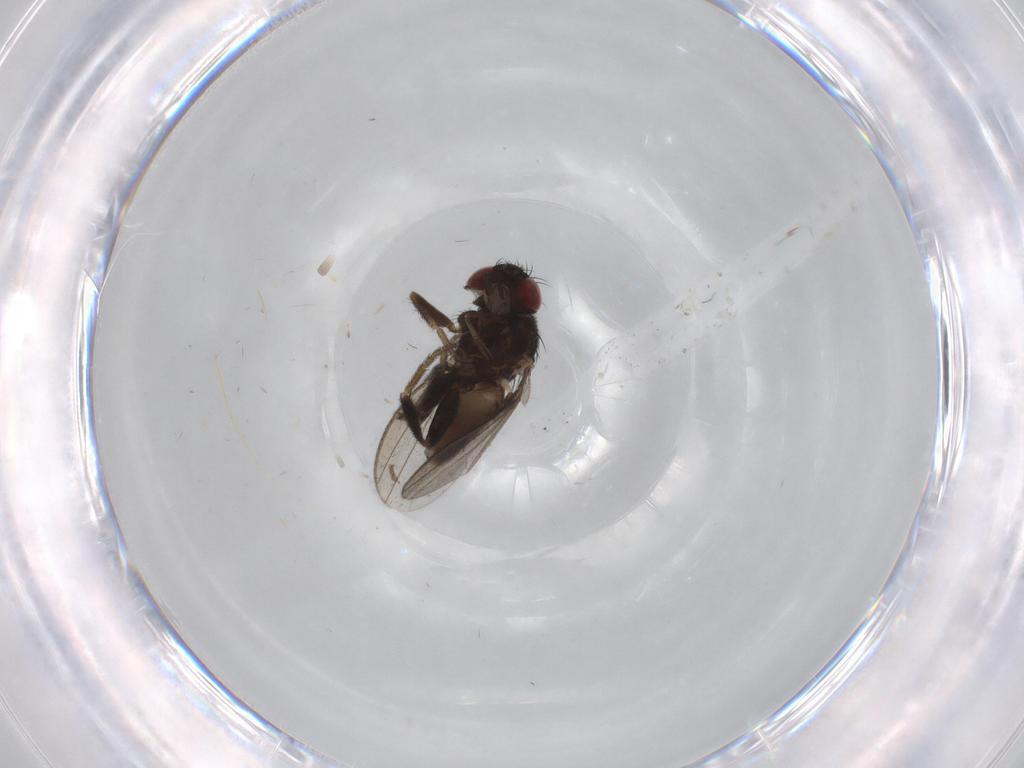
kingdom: Animalia
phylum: Arthropoda
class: Insecta
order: Diptera
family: Milichiidae
